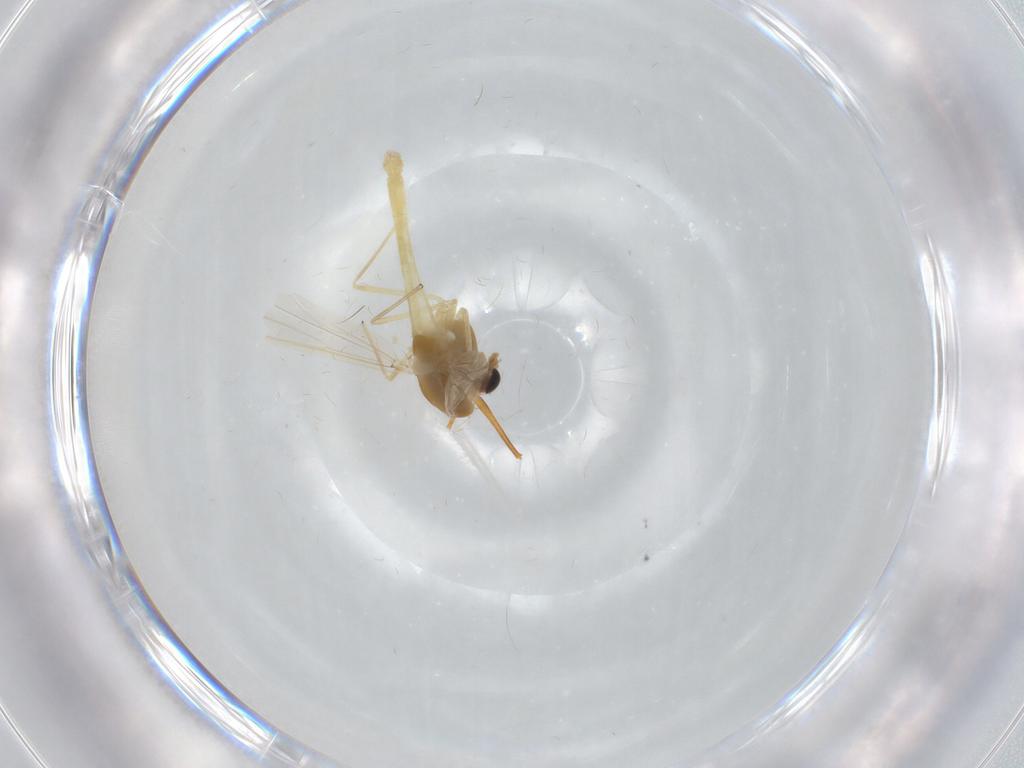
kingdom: Animalia
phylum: Arthropoda
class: Insecta
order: Diptera
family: Chironomidae
